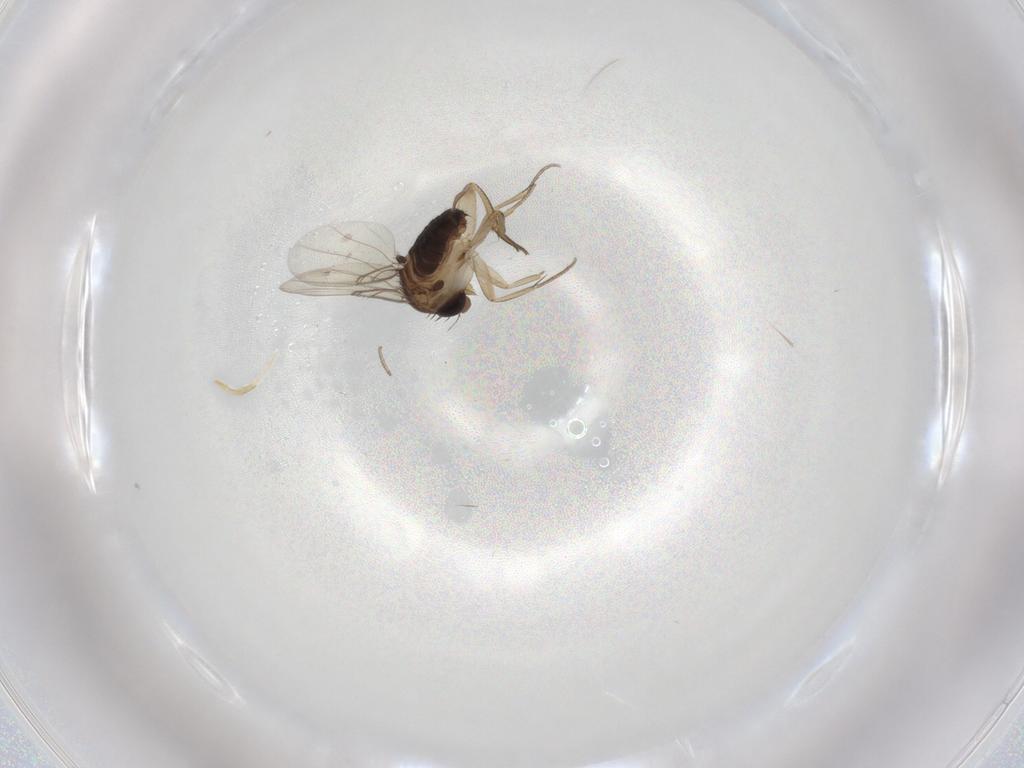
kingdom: Animalia
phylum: Arthropoda
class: Insecta
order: Diptera
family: Phoridae
